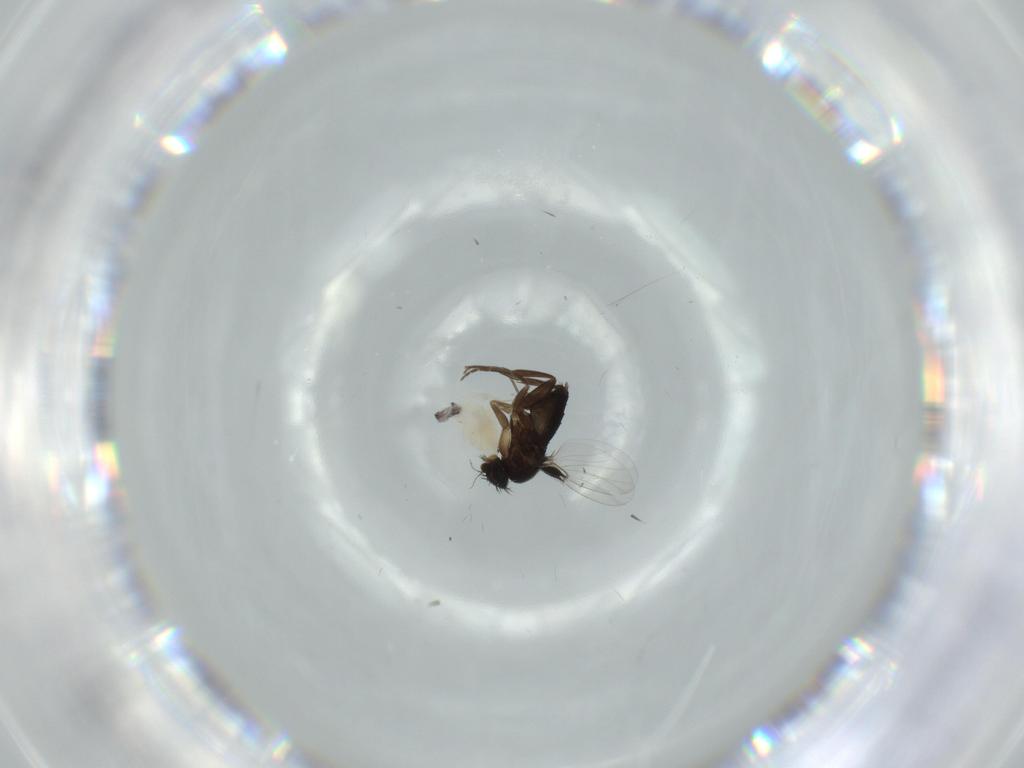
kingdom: Animalia
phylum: Arthropoda
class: Insecta
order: Diptera
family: Phoridae
